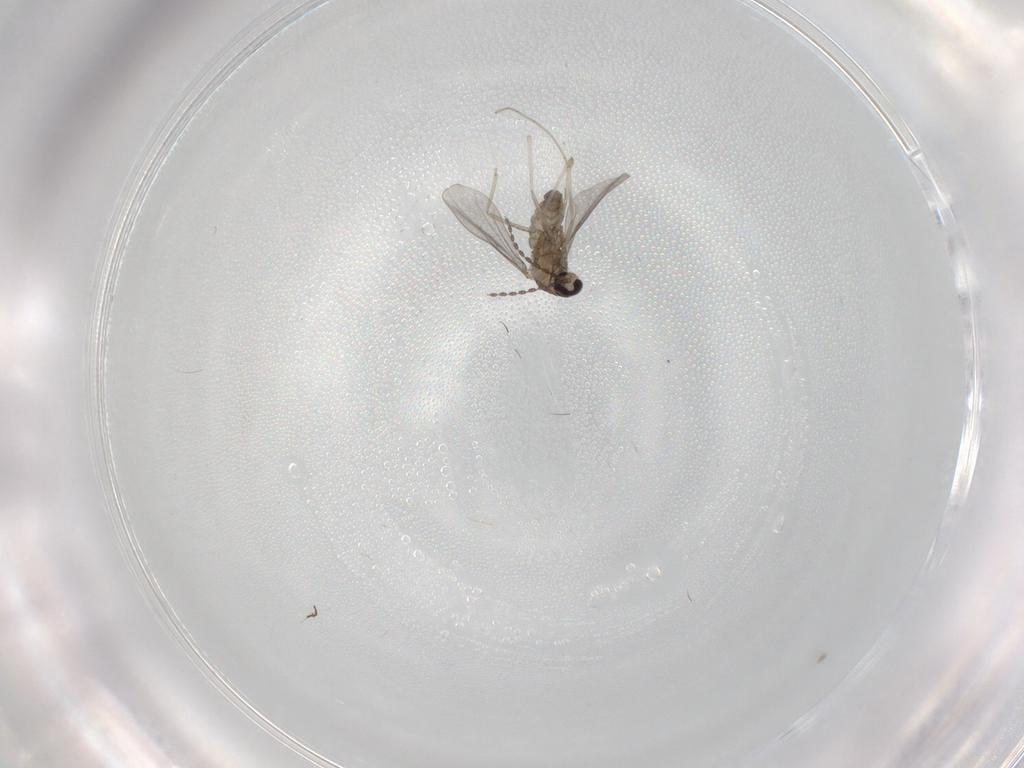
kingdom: Animalia
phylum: Arthropoda
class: Insecta
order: Diptera
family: Cecidomyiidae
